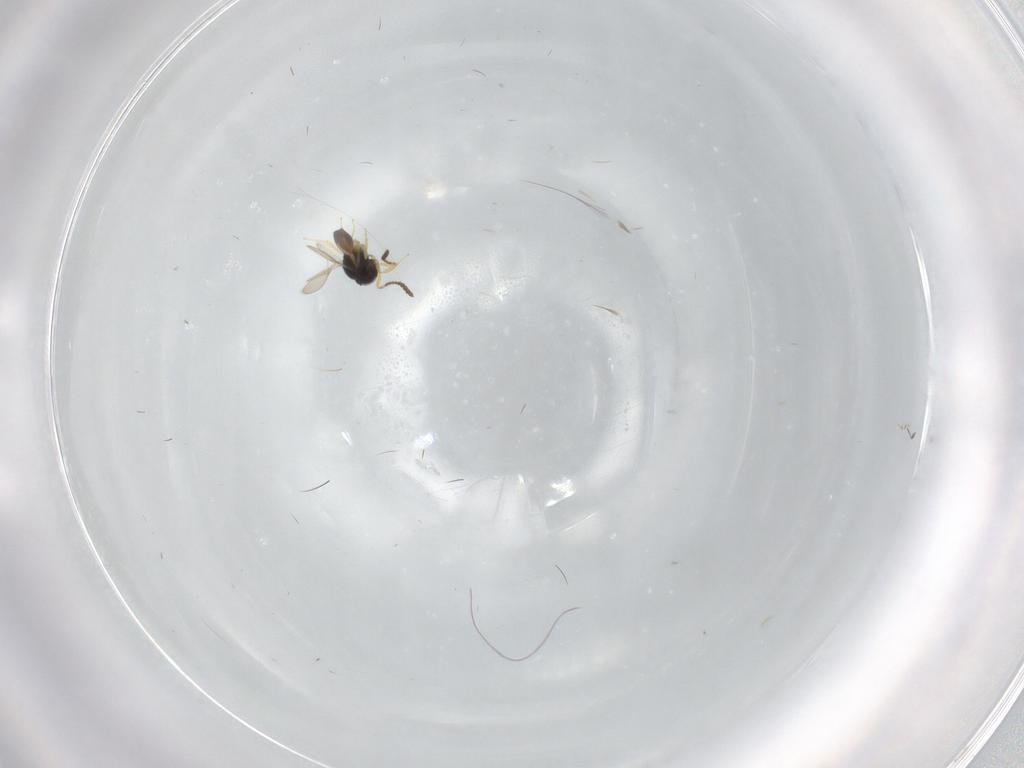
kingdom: Animalia
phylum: Arthropoda
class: Insecta
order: Hymenoptera
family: Scelionidae
